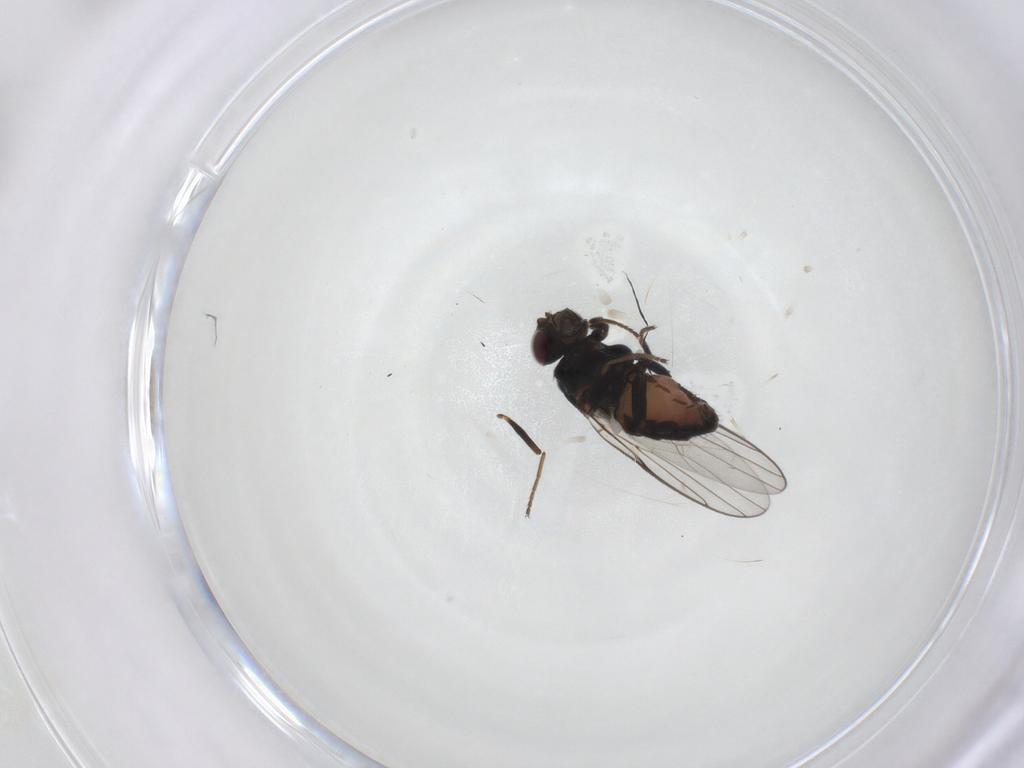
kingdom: Animalia
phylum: Arthropoda
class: Insecta
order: Diptera
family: Chloropidae
